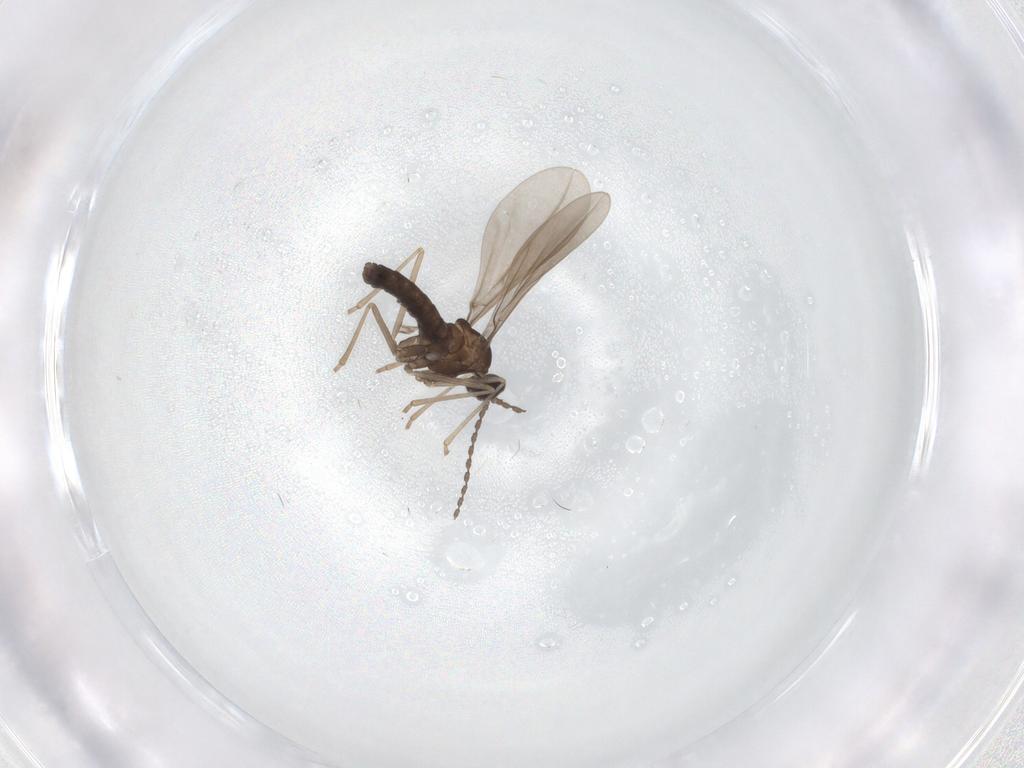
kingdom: Animalia
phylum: Arthropoda
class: Insecta
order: Diptera
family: Cecidomyiidae
